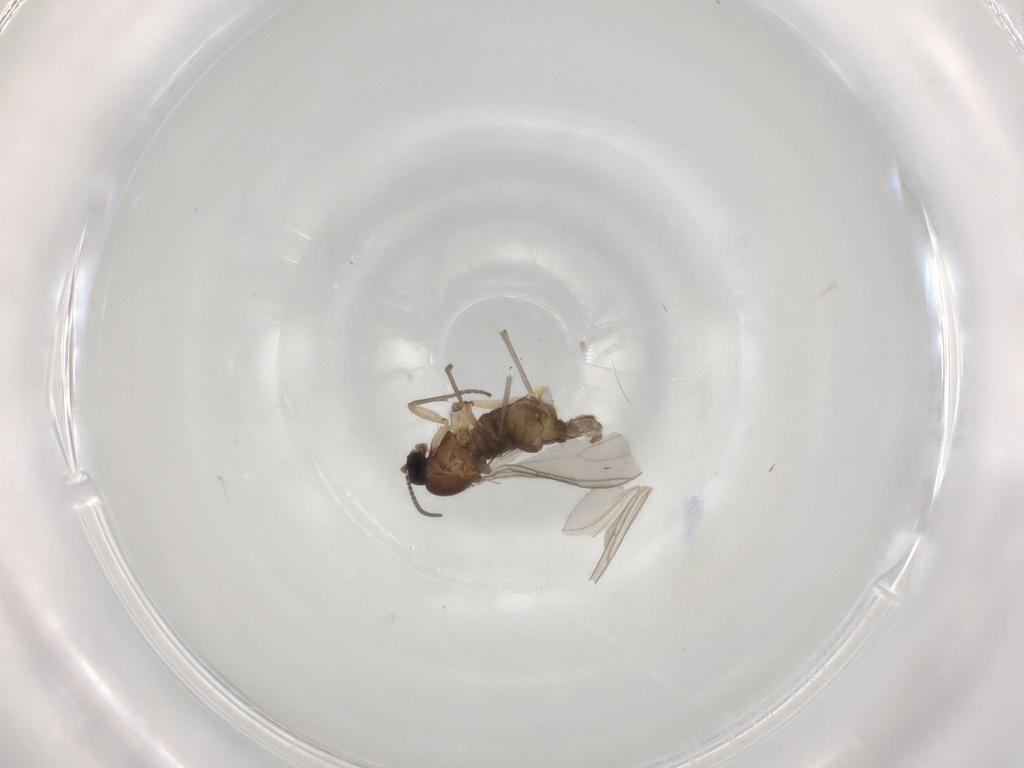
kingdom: Animalia
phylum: Arthropoda
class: Insecta
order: Diptera
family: Sciaridae
